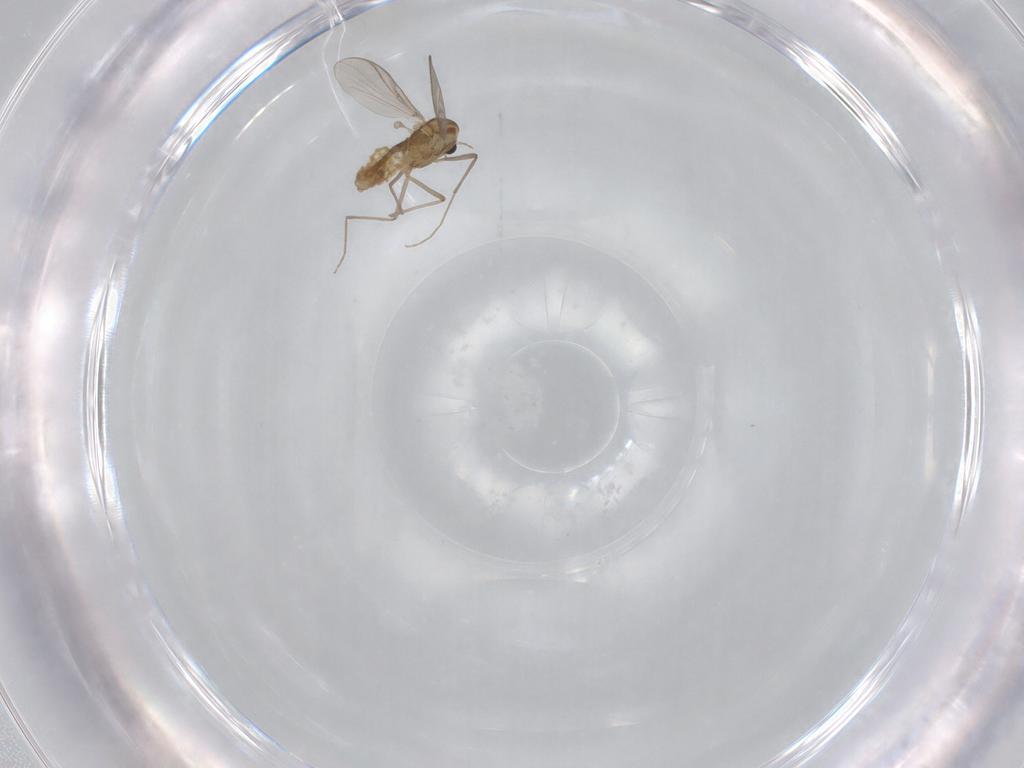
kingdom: Animalia
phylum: Arthropoda
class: Insecta
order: Diptera
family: Chironomidae
